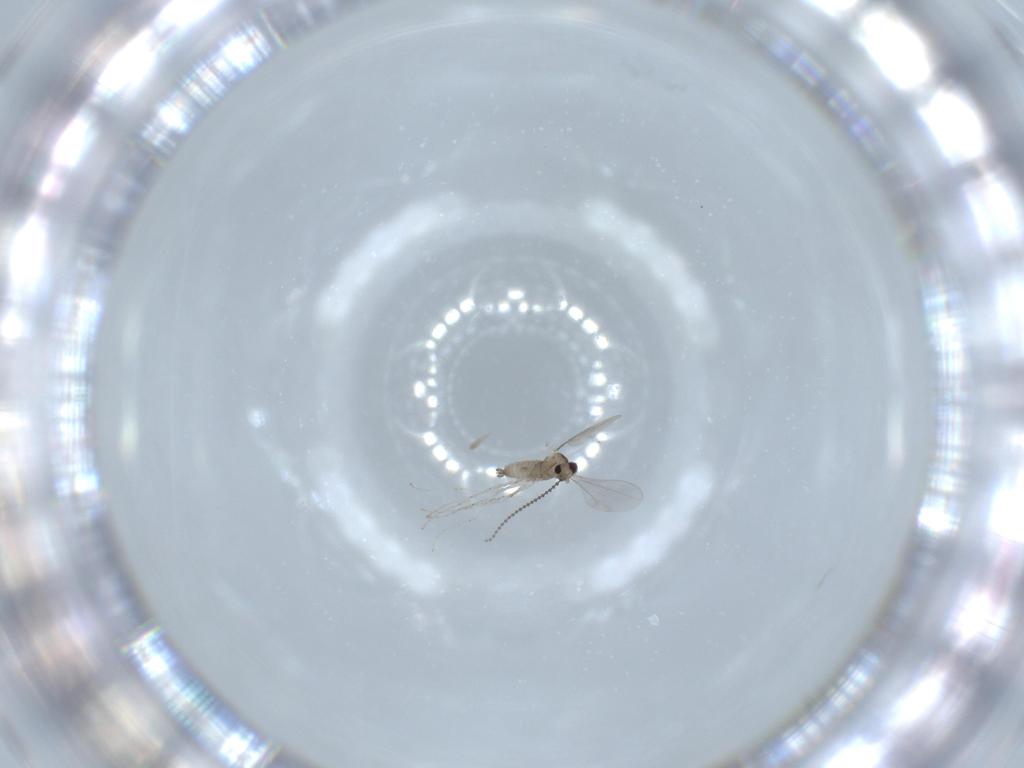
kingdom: Animalia
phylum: Arthropoda
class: Insecta
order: Diptera
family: Cecidomyiidae
